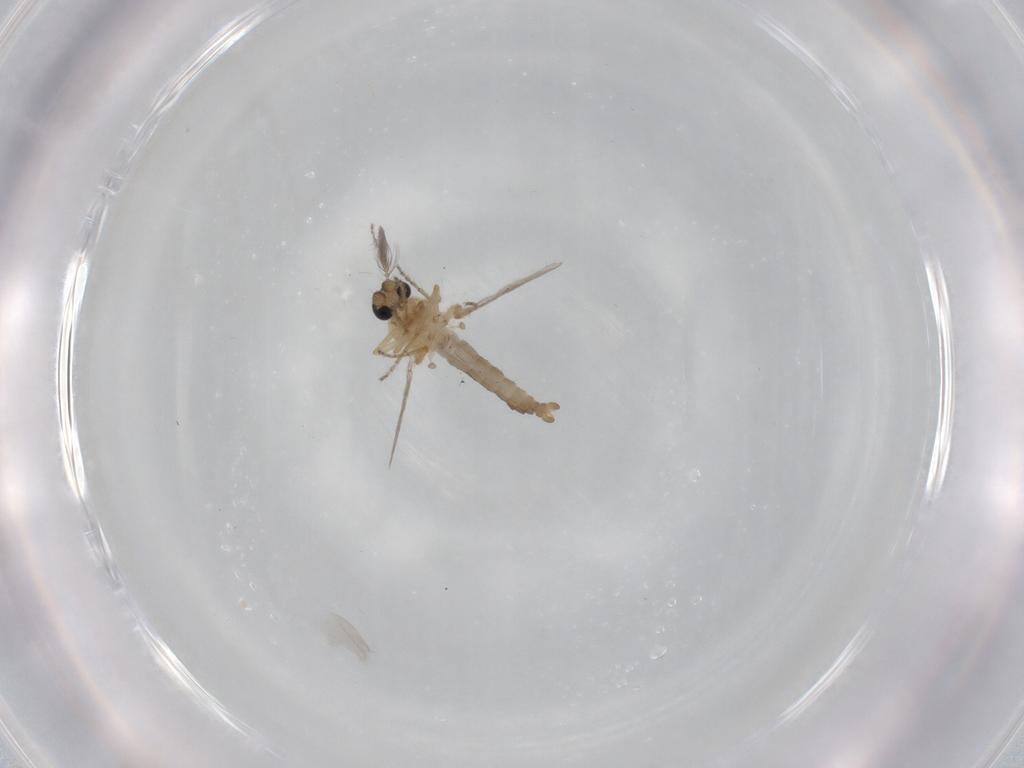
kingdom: Animalia
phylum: Arthropoda
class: Insecta
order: Diptera
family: Ceratopogonidae
